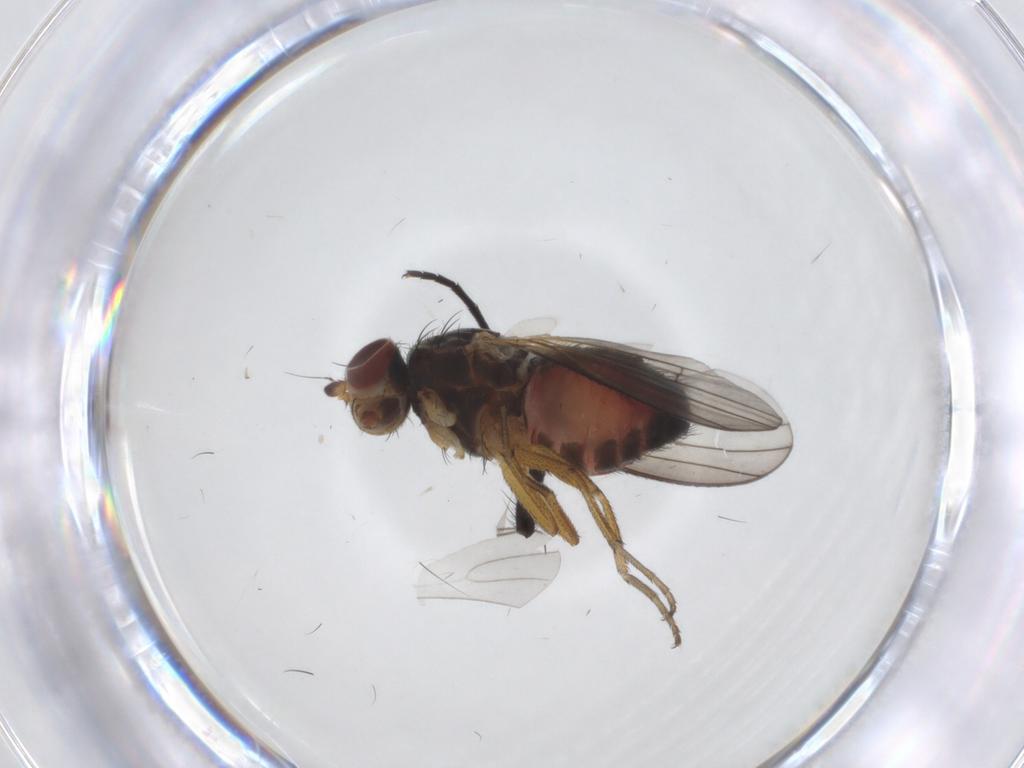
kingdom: Animalia
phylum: Arthropoda
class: Insecta
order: Diptera
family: Heleomyzidae
